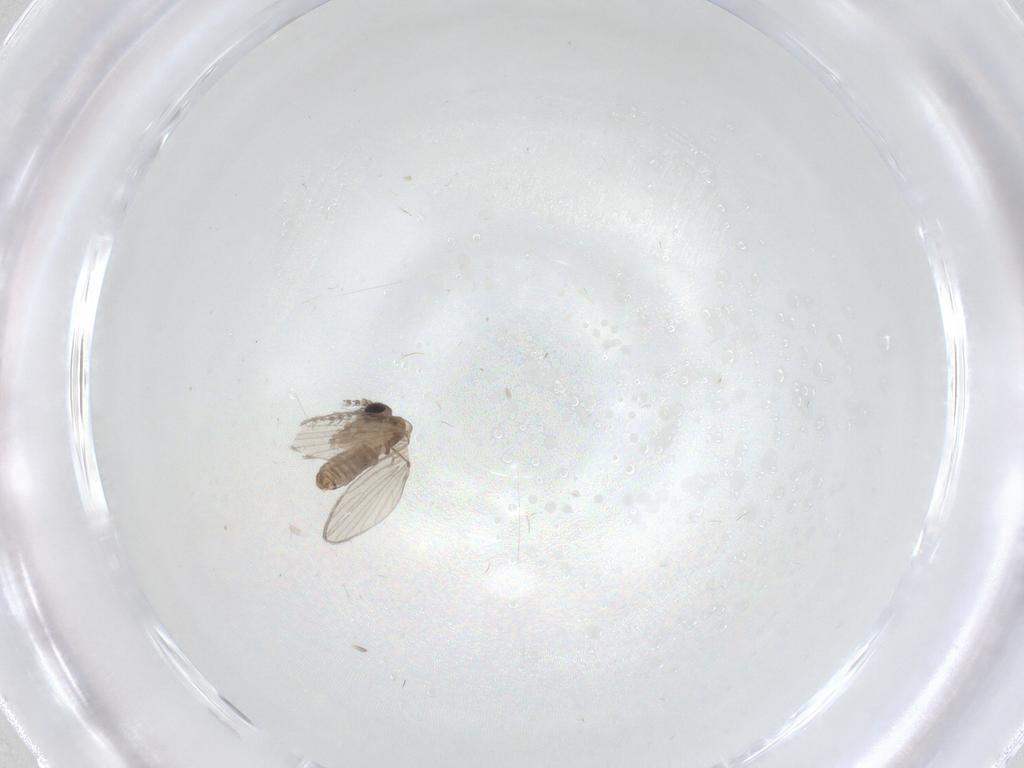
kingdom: Animalia
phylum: Arthropoda
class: Insecta
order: Diptera
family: Psychodidae
